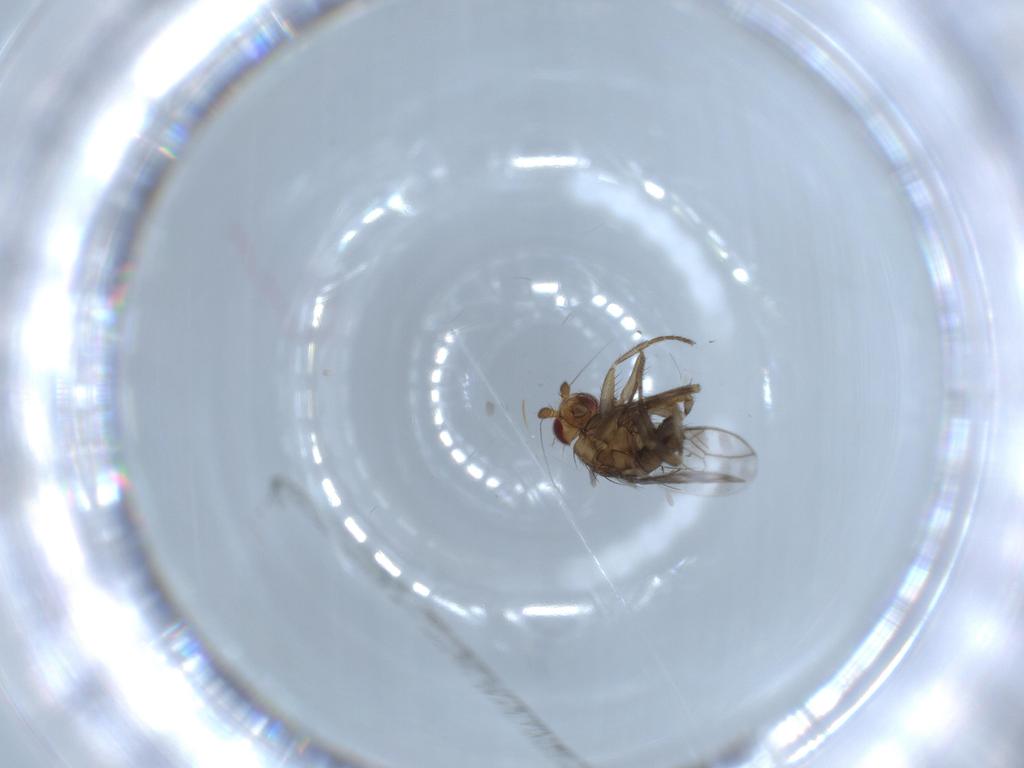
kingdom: Animalia
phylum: Arthropoda
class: Insecta
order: Diptera
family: Sphaeroceridae
